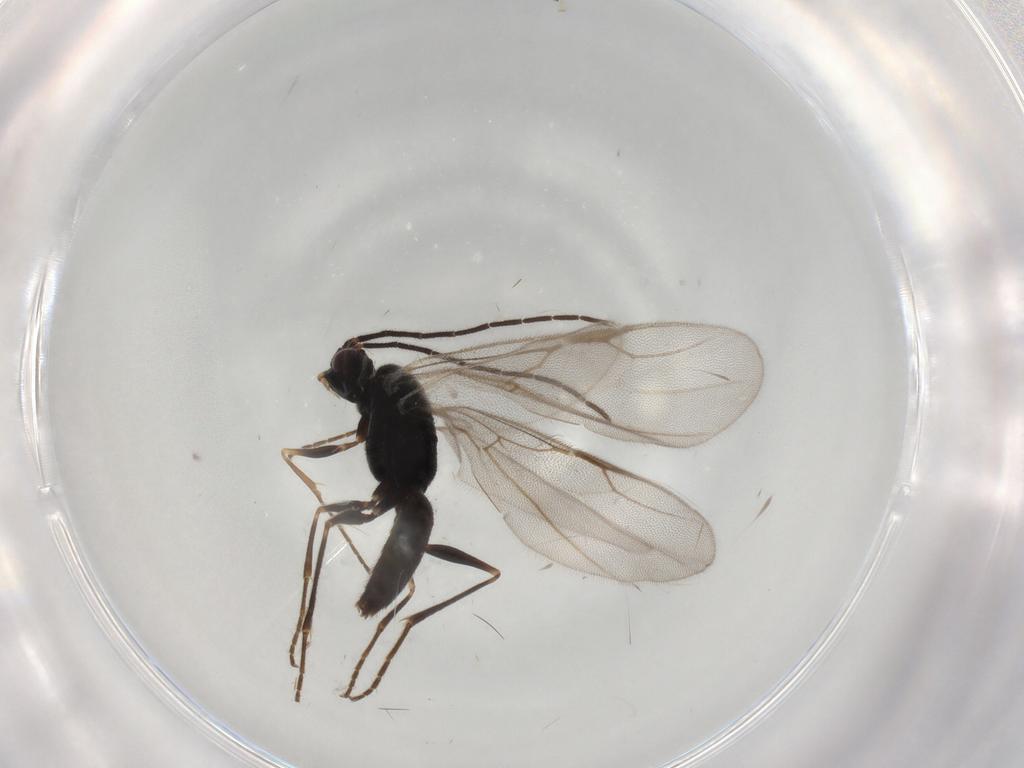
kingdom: Animalia
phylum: Arthropoda
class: Insecta
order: Hymenoptera
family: Dryinidae
